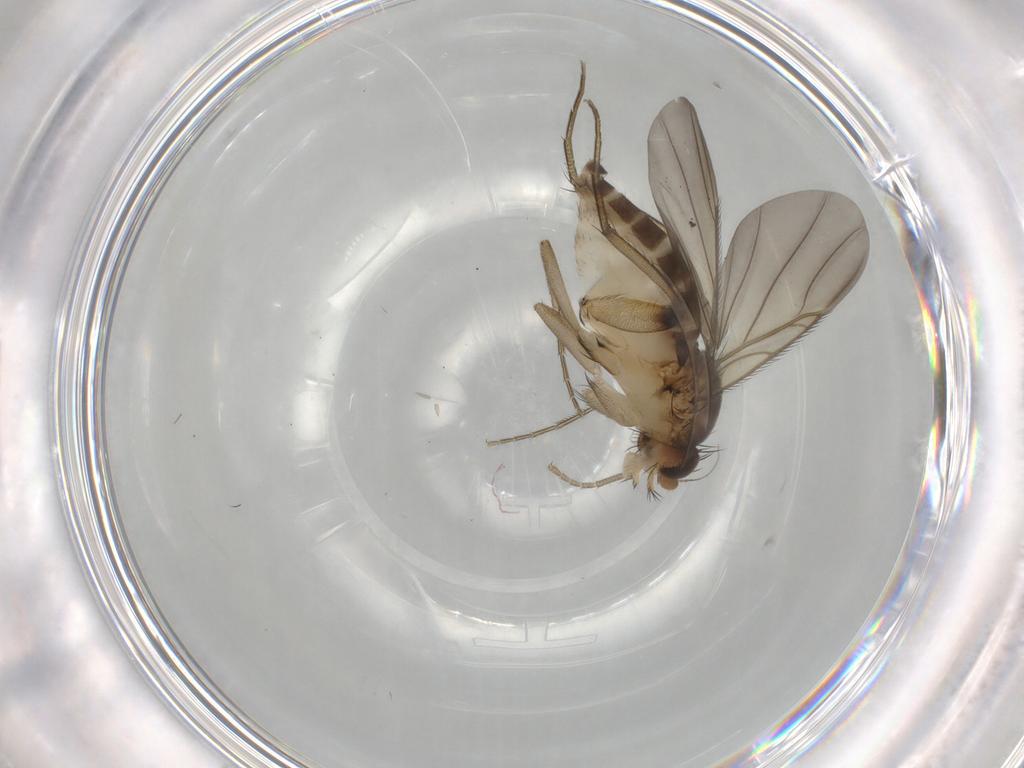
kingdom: Animalia
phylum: Arthropoda
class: Insecta
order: Diptera
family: Phoridae
